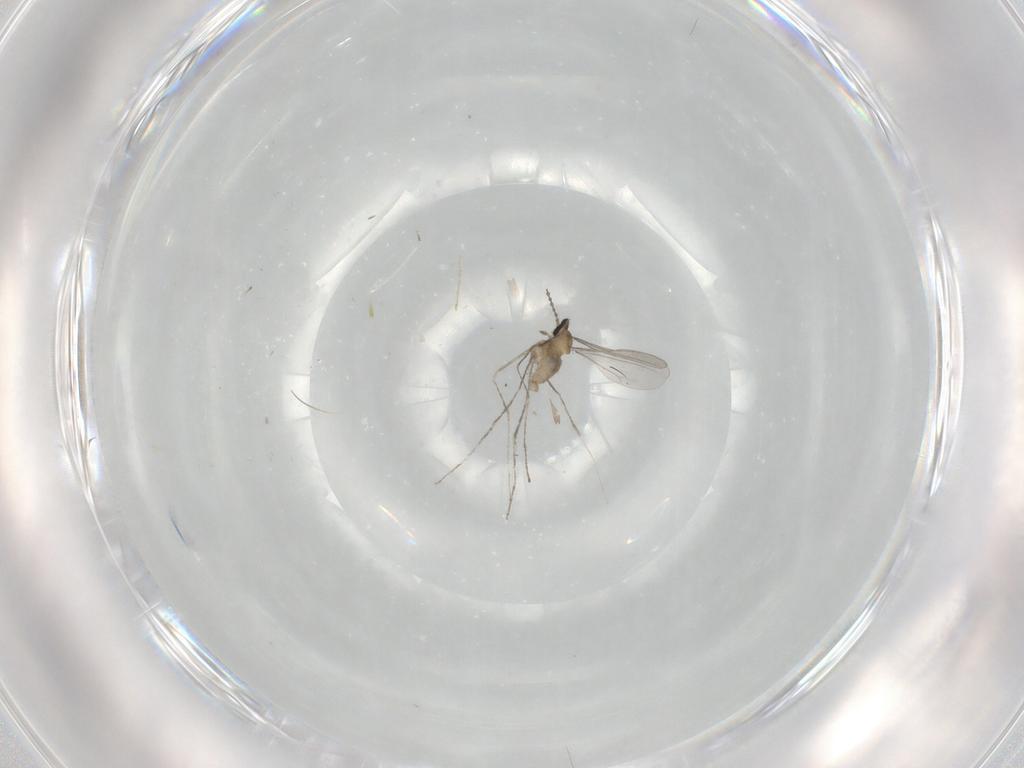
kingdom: Animalia
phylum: Arthropoda
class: Insecta
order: Diptera
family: Cecidomyiidae
